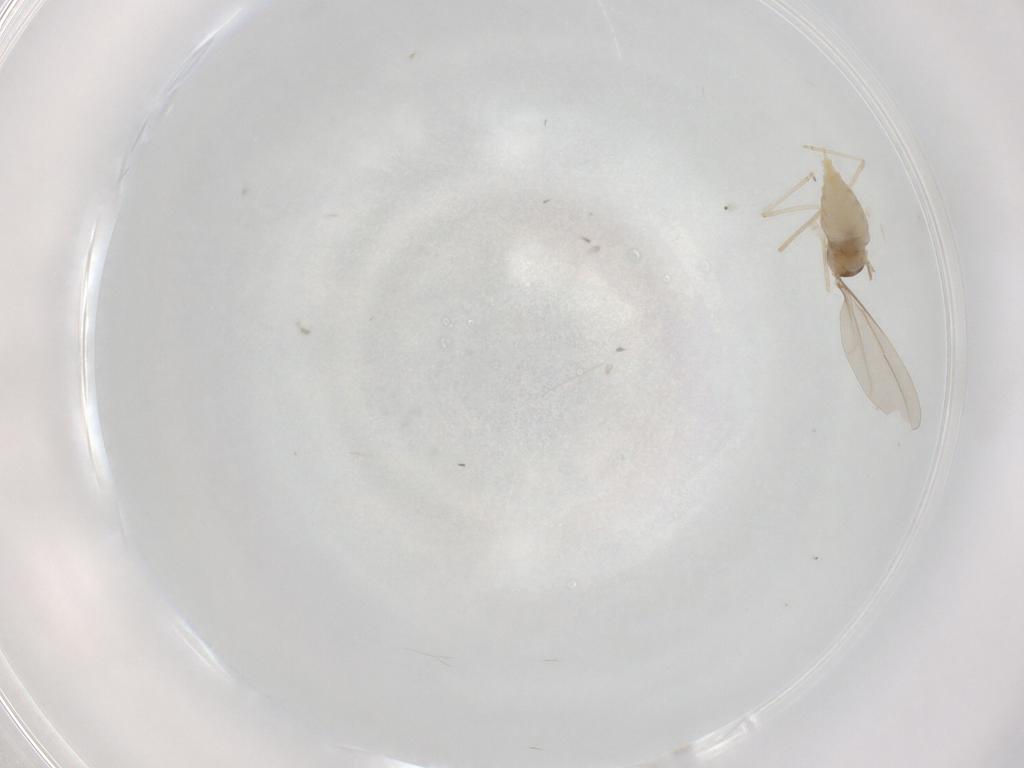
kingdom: Animalia
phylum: Arthropoda
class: Insecta
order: Diptera
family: Cecidomyiidae
